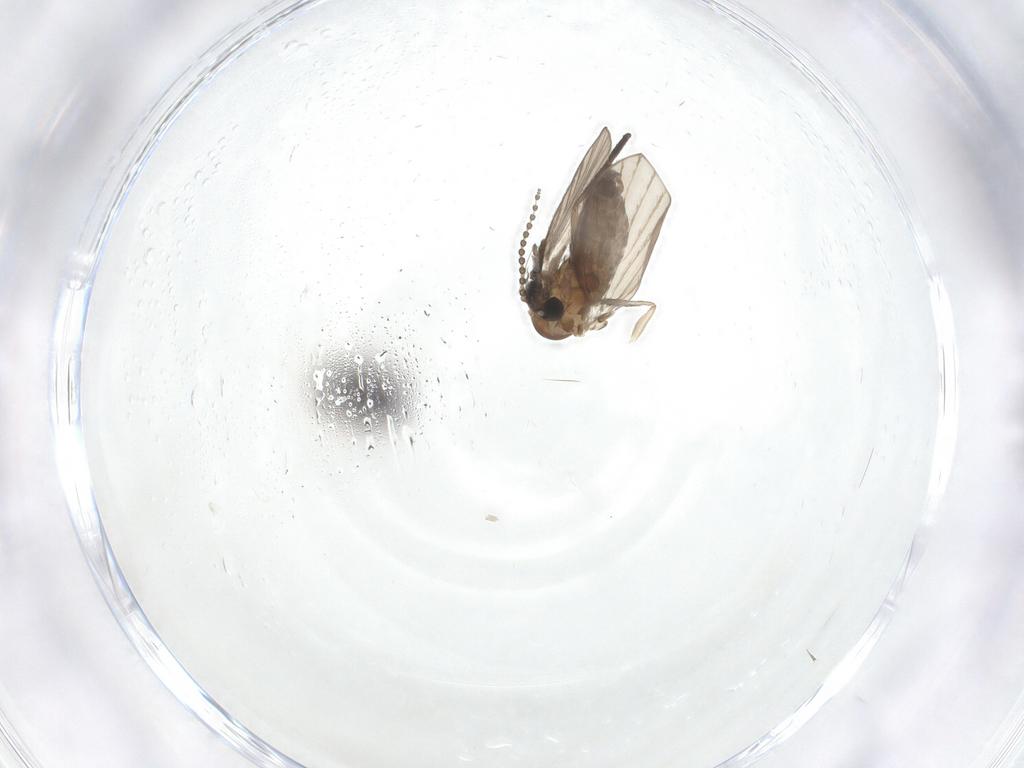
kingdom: Animalia
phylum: Arthropoda
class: Insecta
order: Diptera
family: Psychodidae
